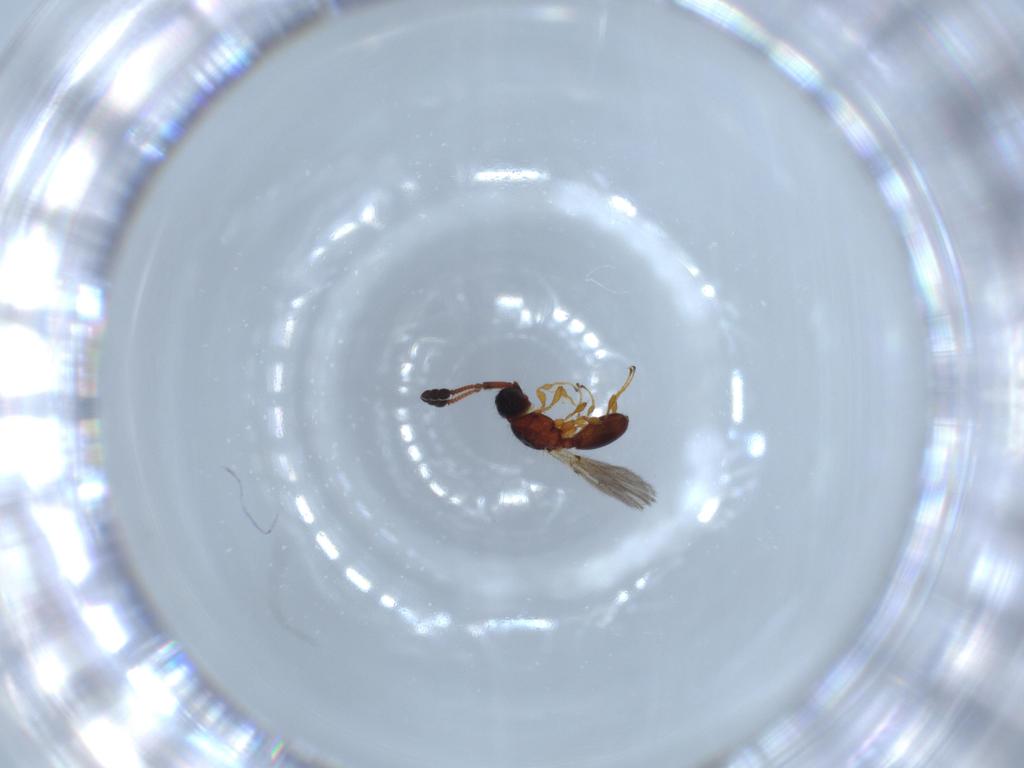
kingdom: Animalia
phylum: Arthropoda
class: Insecta
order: Hymenoptera
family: Diapriidae
